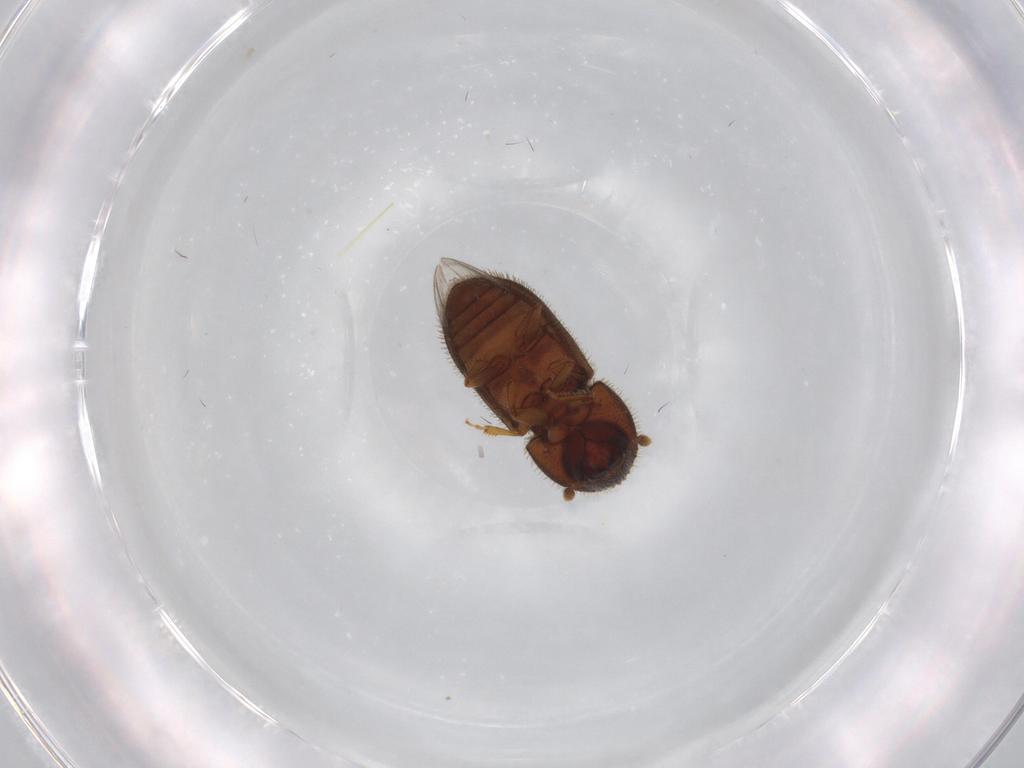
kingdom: Animalia
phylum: Arthropoda
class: Insecta
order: Coleoptera
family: Curculionidae
